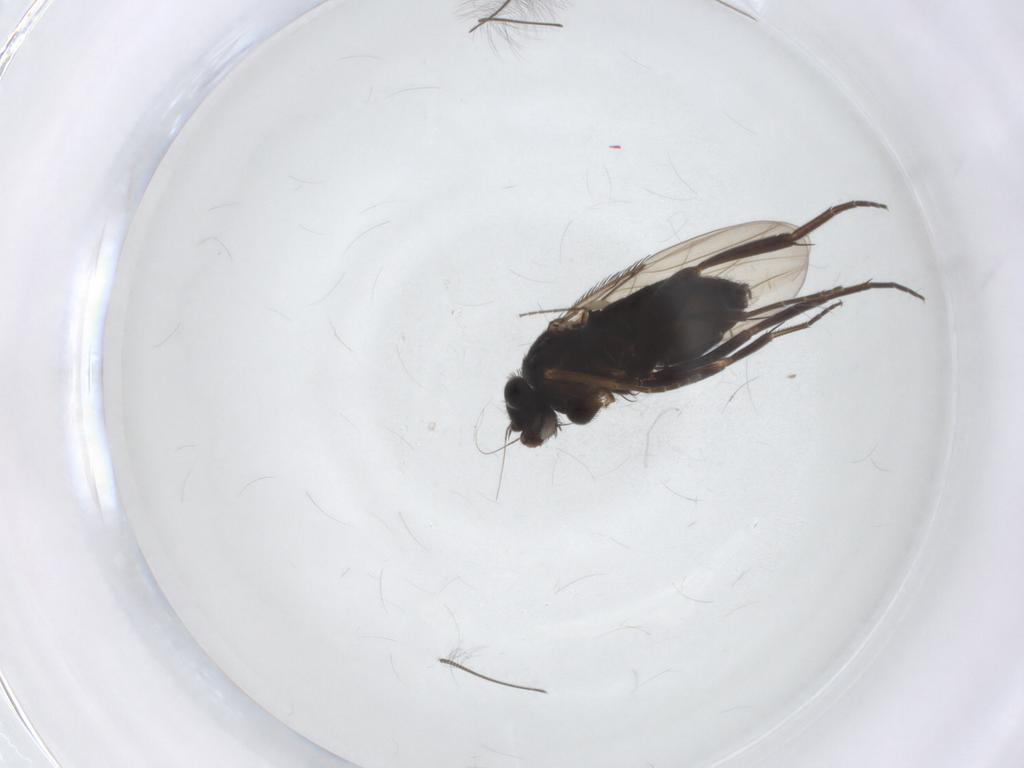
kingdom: Animalia
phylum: Arthropoda
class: Insecta
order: Diptera
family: Phoridae
